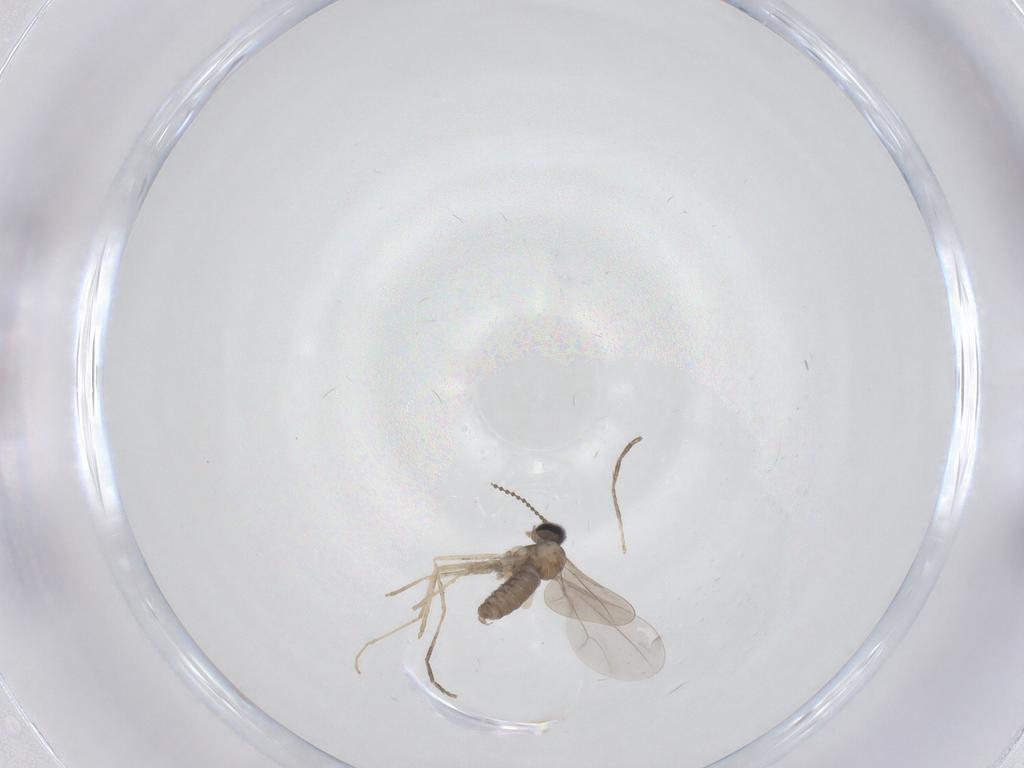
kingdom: Animalia
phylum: Arthropoda
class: Insecta
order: Diptera
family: Cecidomyiidae
